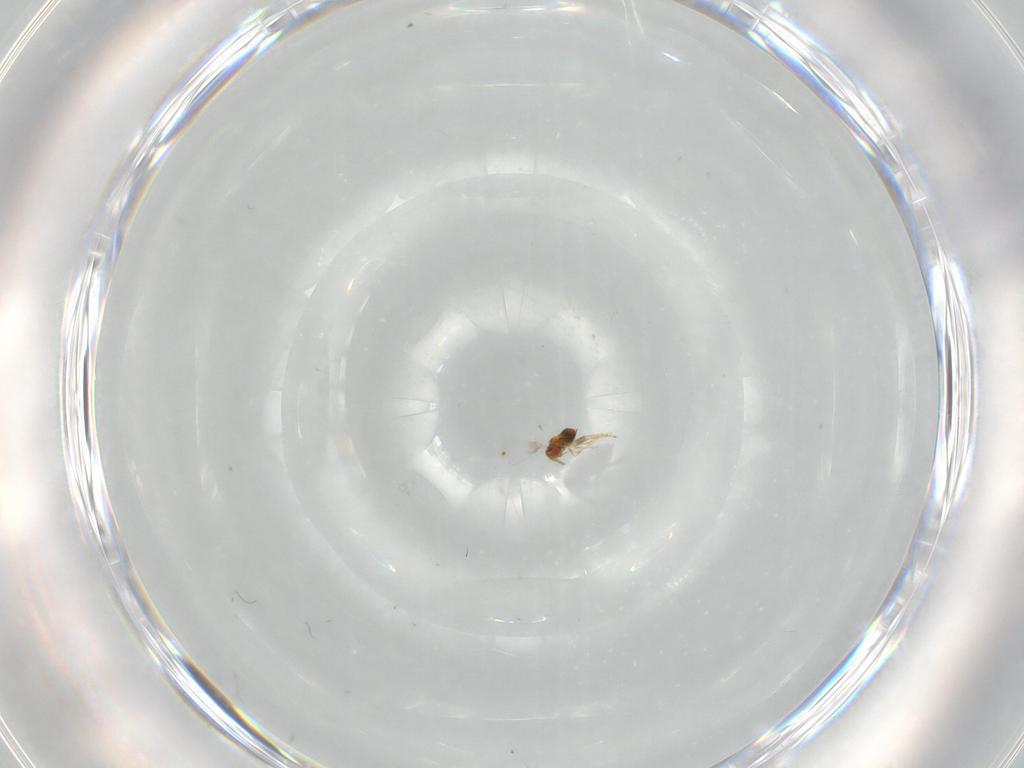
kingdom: Animalia
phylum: Arthropoda
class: Insecta
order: Hymenoptera
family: Trichogrammatidae
